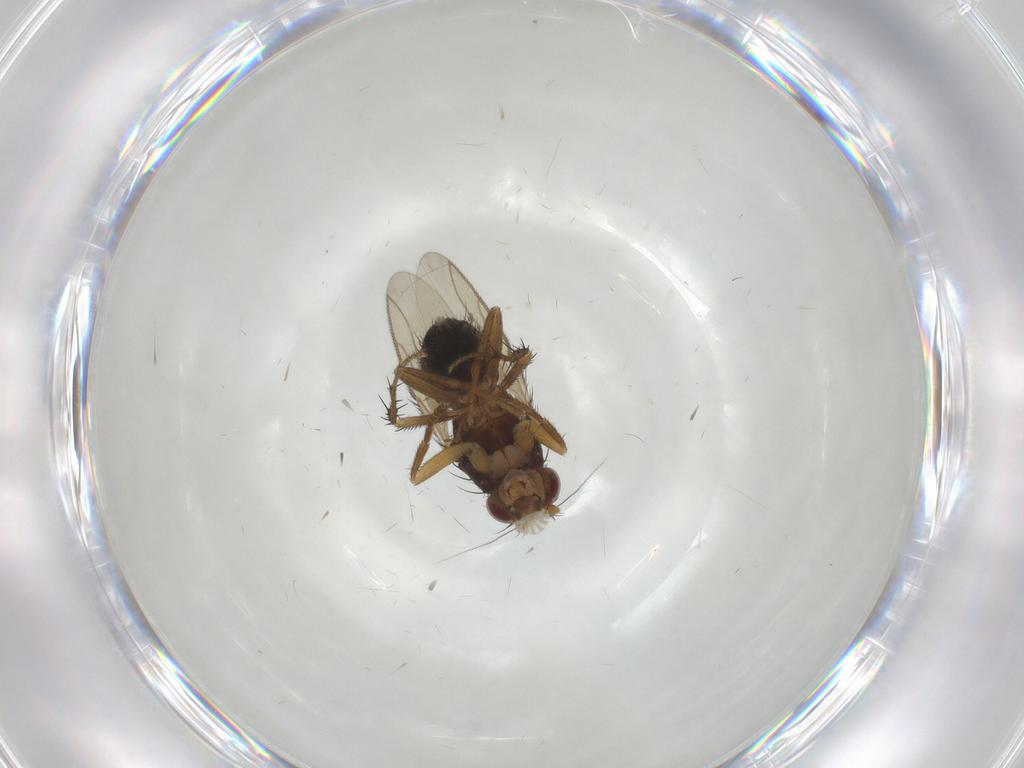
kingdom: Animalia
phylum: Arthropoda
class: Insecta
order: Diptera
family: Sphaeroceridae
